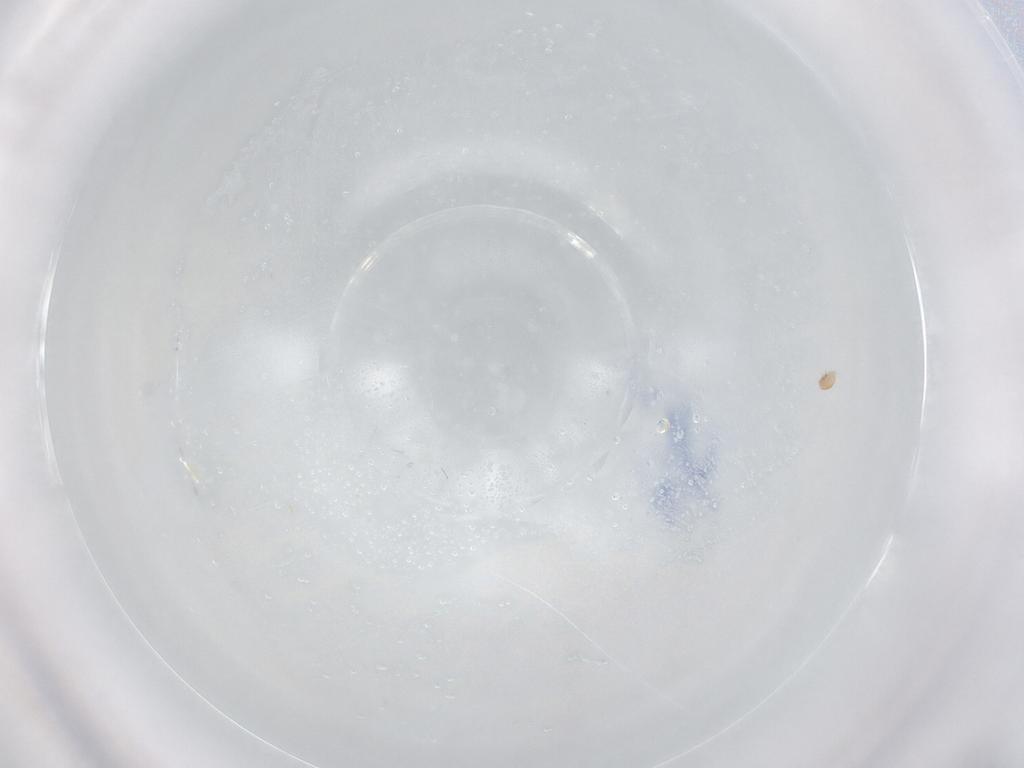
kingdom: Animalia
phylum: Arthropoda
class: Arachnida
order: Trombidiformes
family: Scutacaridae
